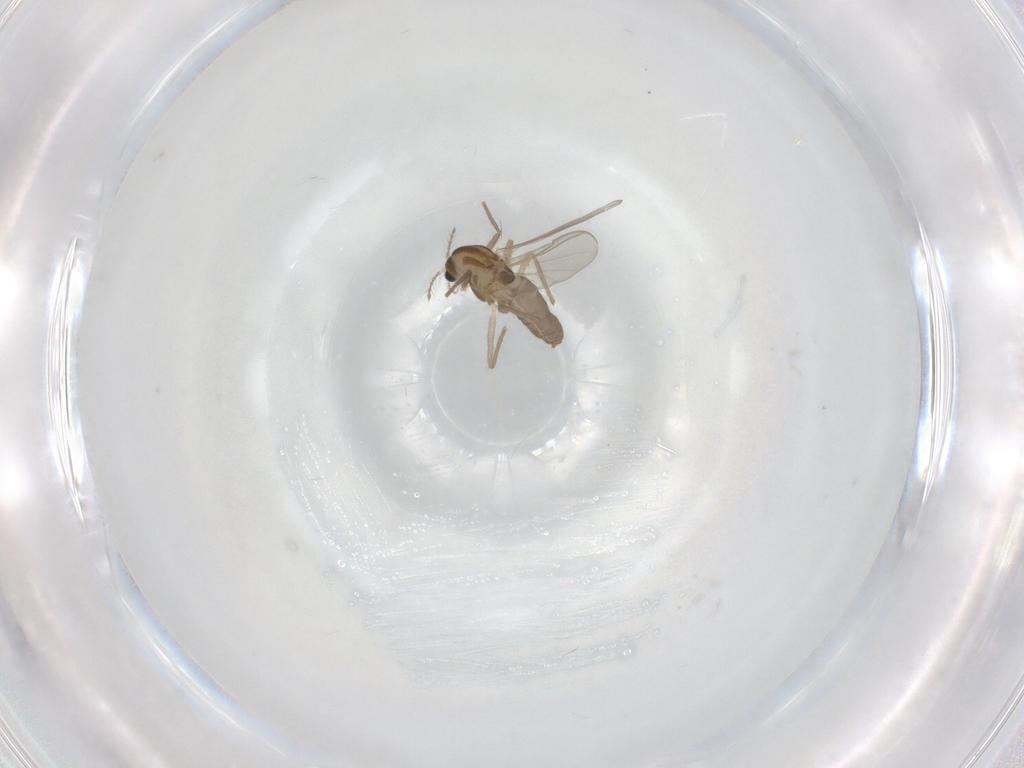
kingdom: Animalia
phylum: Arthropoda
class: Insecta
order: Diptera
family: Chironomidae
